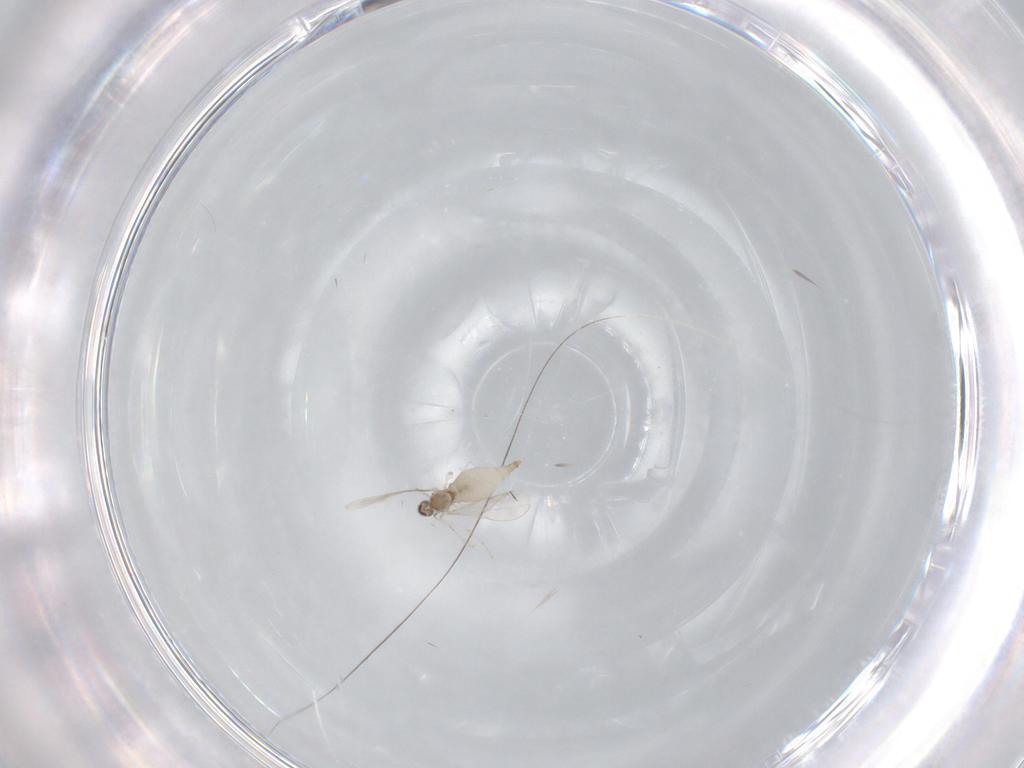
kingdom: Animalia
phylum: Arthropoda
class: Insecta
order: Diptera
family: Cecidomyiidae
